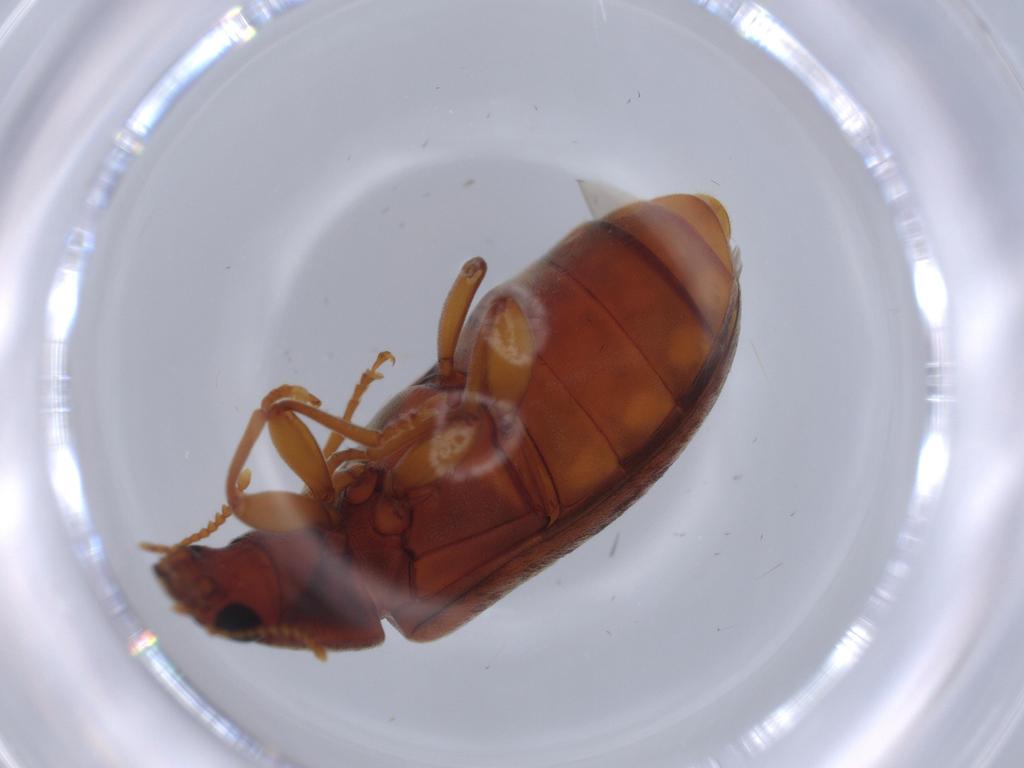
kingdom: Animalia
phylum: Arthropoda
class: Insecta
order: Coleoptera
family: Mycteridae
